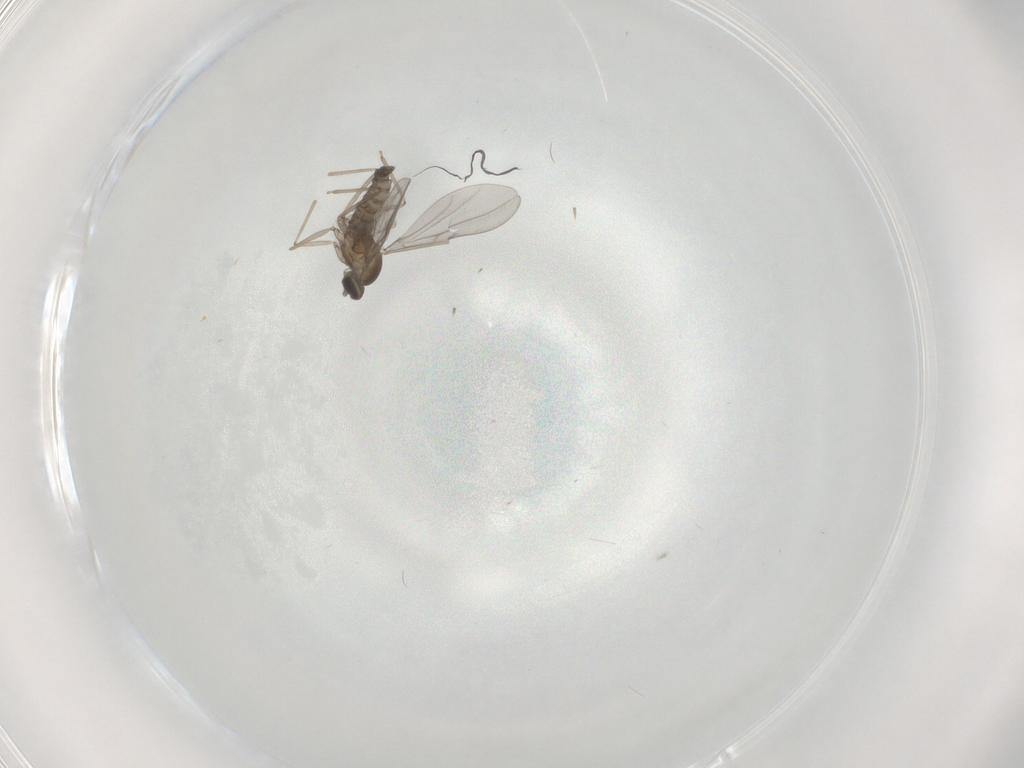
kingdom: Animalia
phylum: Arthropoda
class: Insecta
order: Diptera
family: Cecidomyiidae
